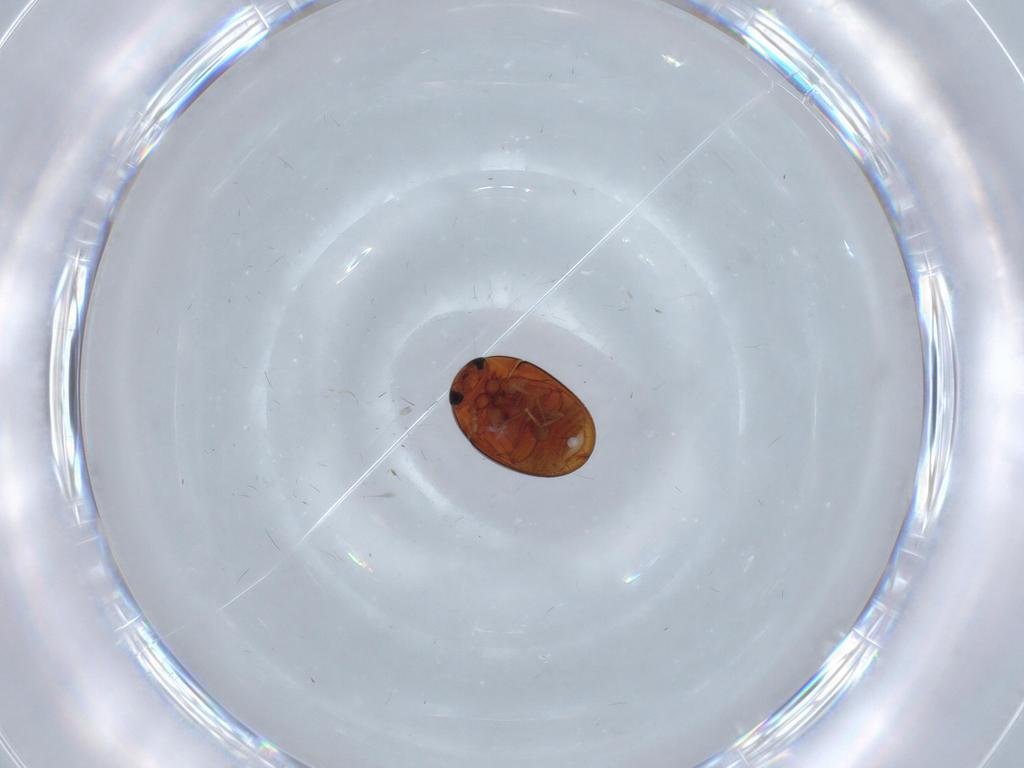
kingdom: Animalia
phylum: Arthropoda
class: Insecta
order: Coleoptera
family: Phalacridae
